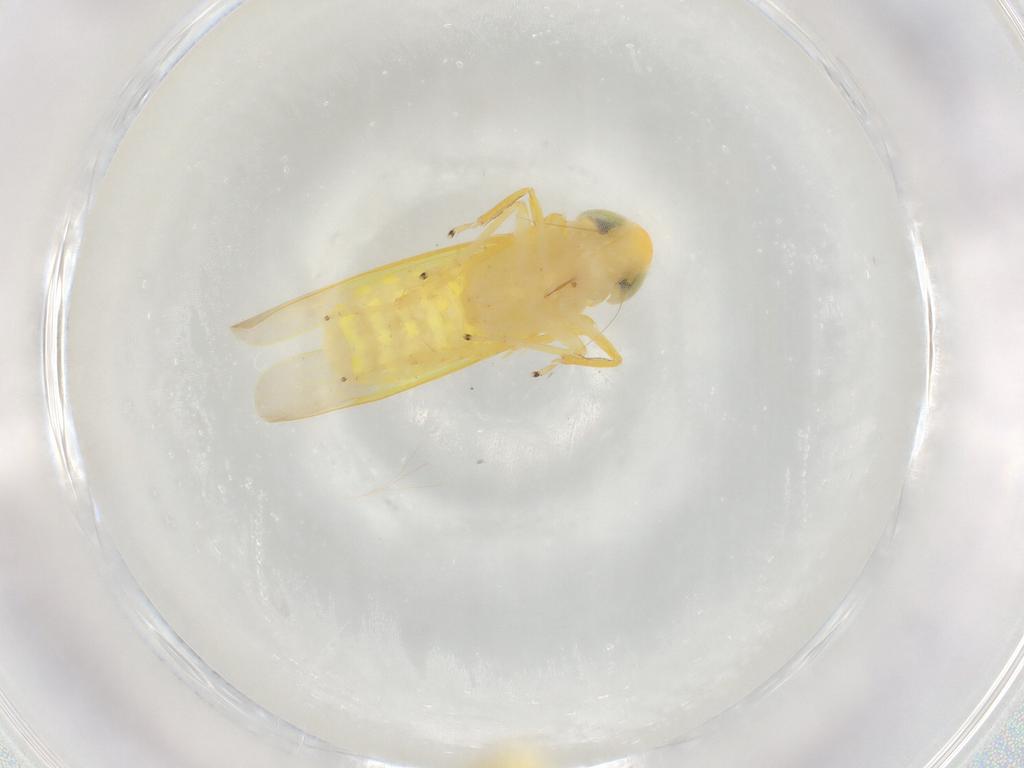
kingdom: Animalia
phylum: Arthropoda
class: Insecta
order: Hemiptera
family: Cicadellidae
